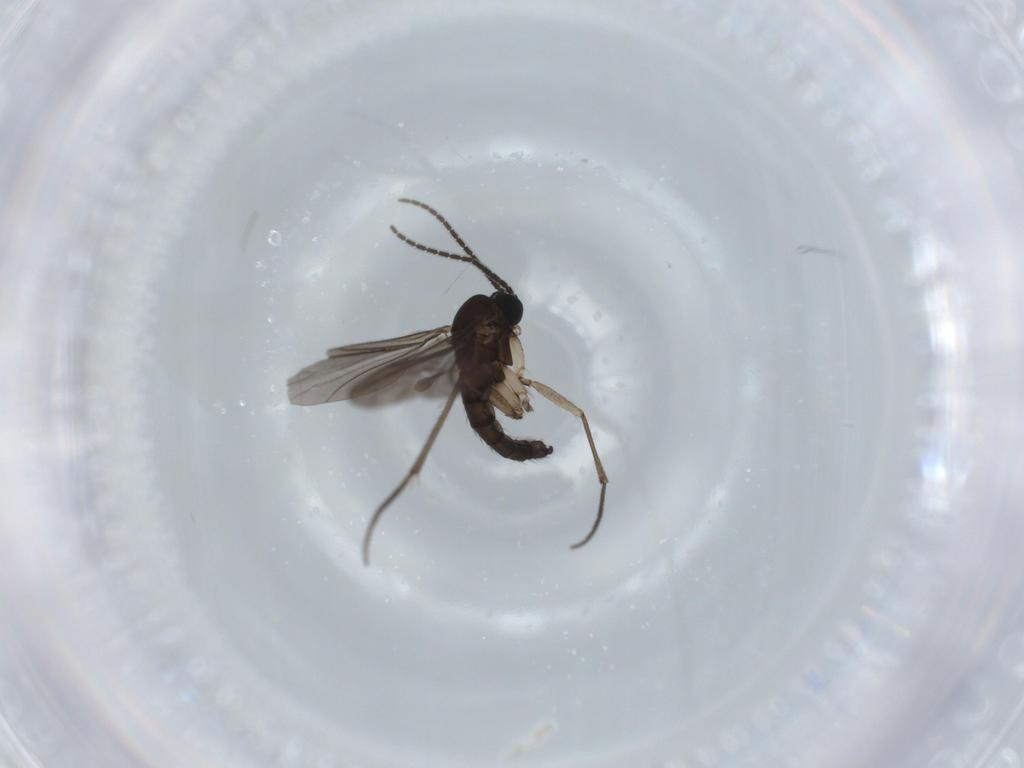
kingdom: Animalia
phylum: Arthropoda
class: Insecta
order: Diptera
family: Sciaridae
